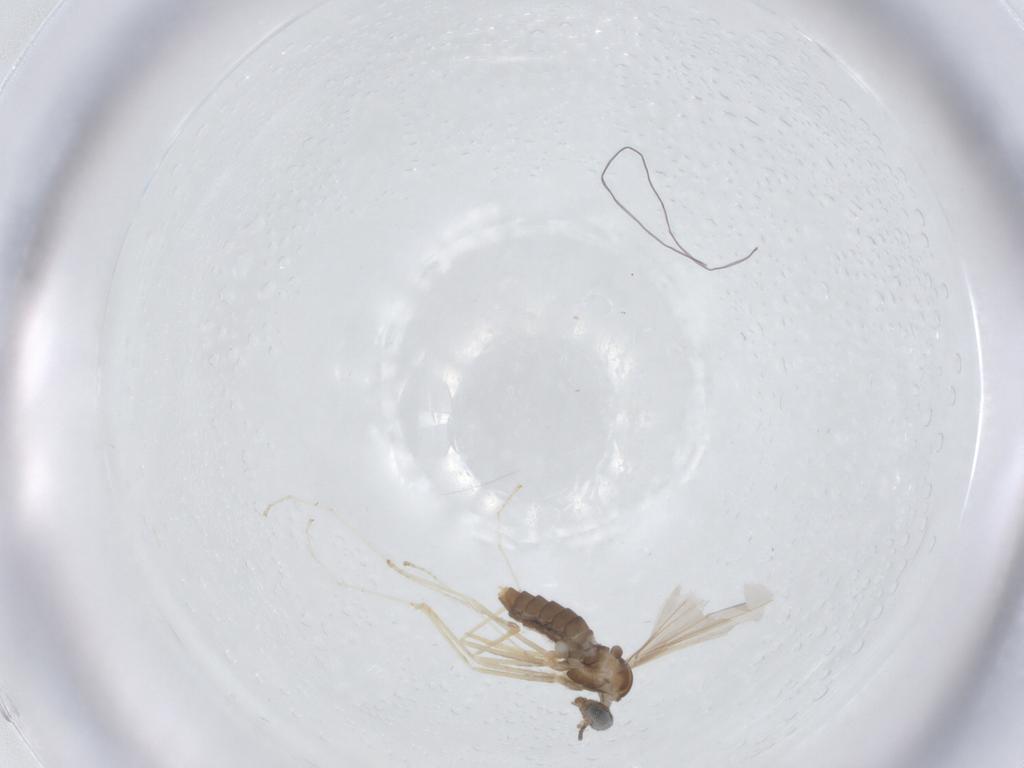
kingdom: Animalia
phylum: Arthropoda
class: Insecta
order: Diptera
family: Cecidomyiidae
